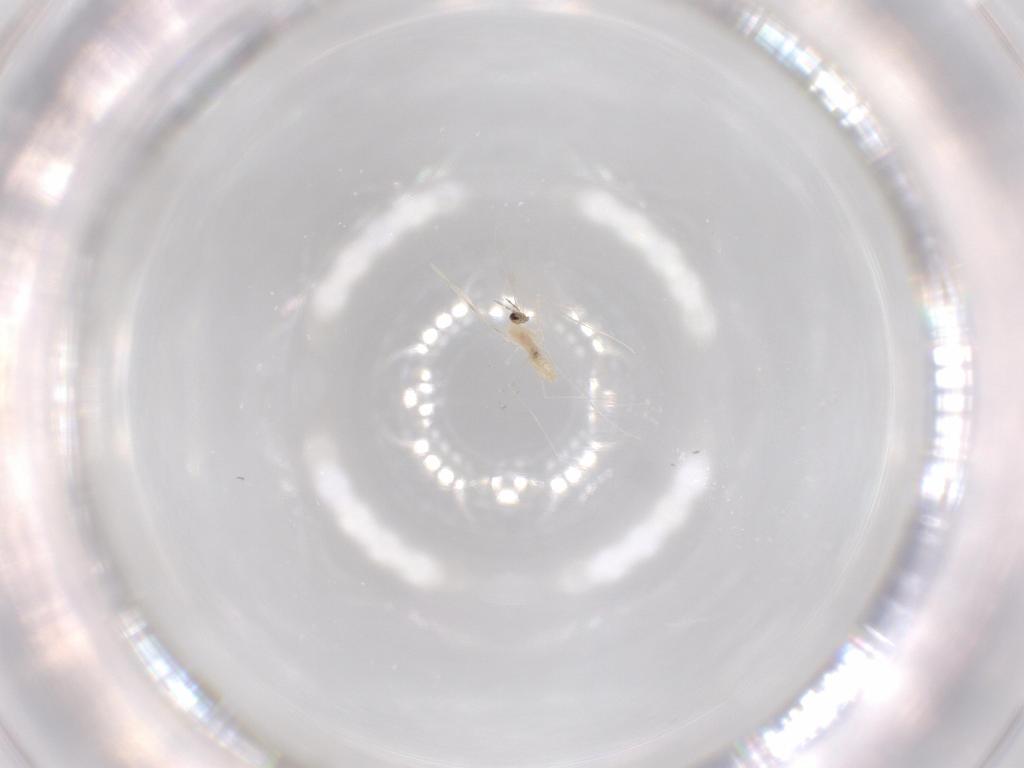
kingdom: Animalia
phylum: Arthropoda
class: Insecta
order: Diptera
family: Cecidomyiidae
